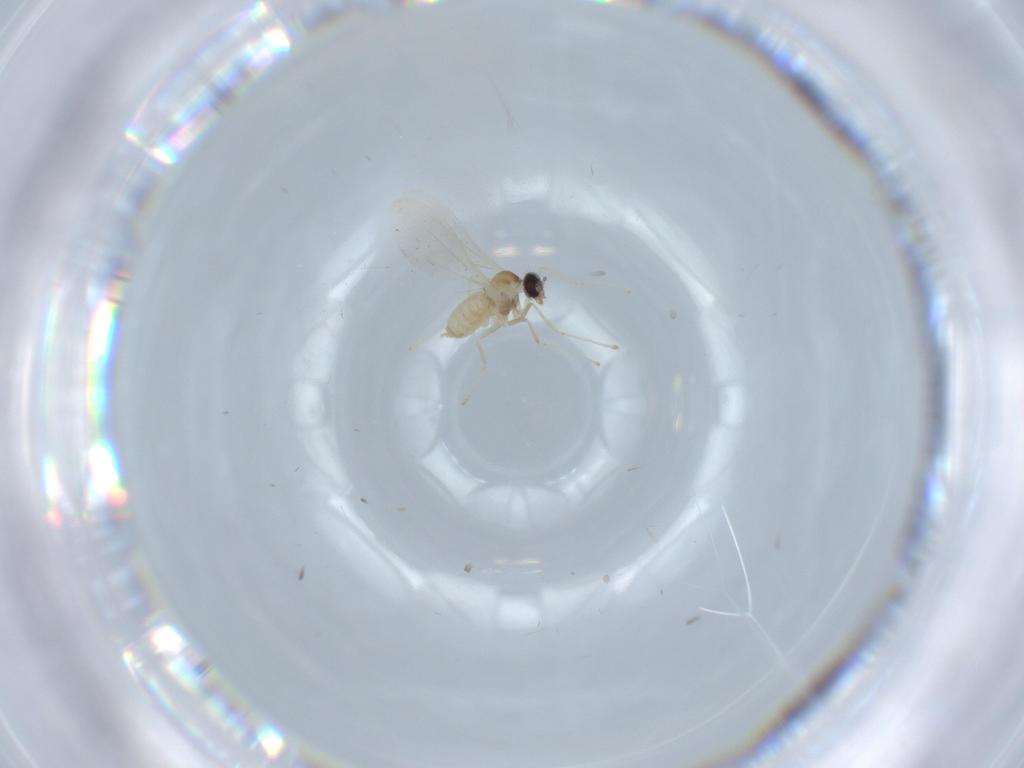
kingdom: Animalia
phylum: Arthropoda
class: Insecta
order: Diptera
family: Cecidomyiidae
